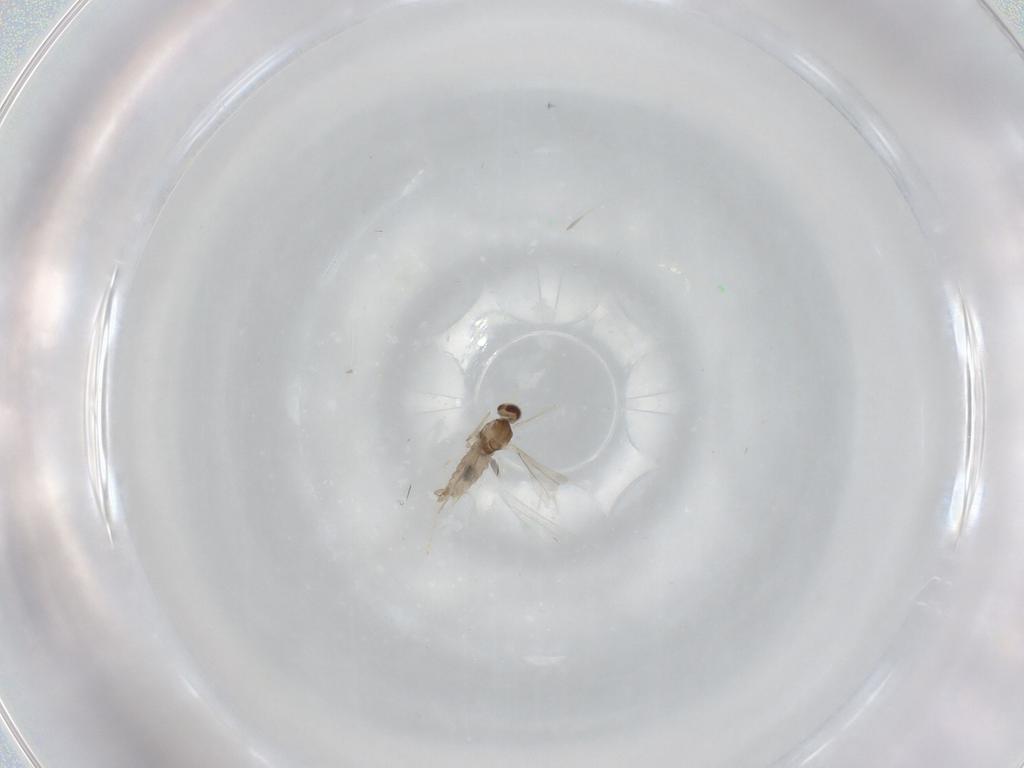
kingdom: Animalia
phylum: Arthropoda
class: Insecta
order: Diptera
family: Cecidomyiidae
